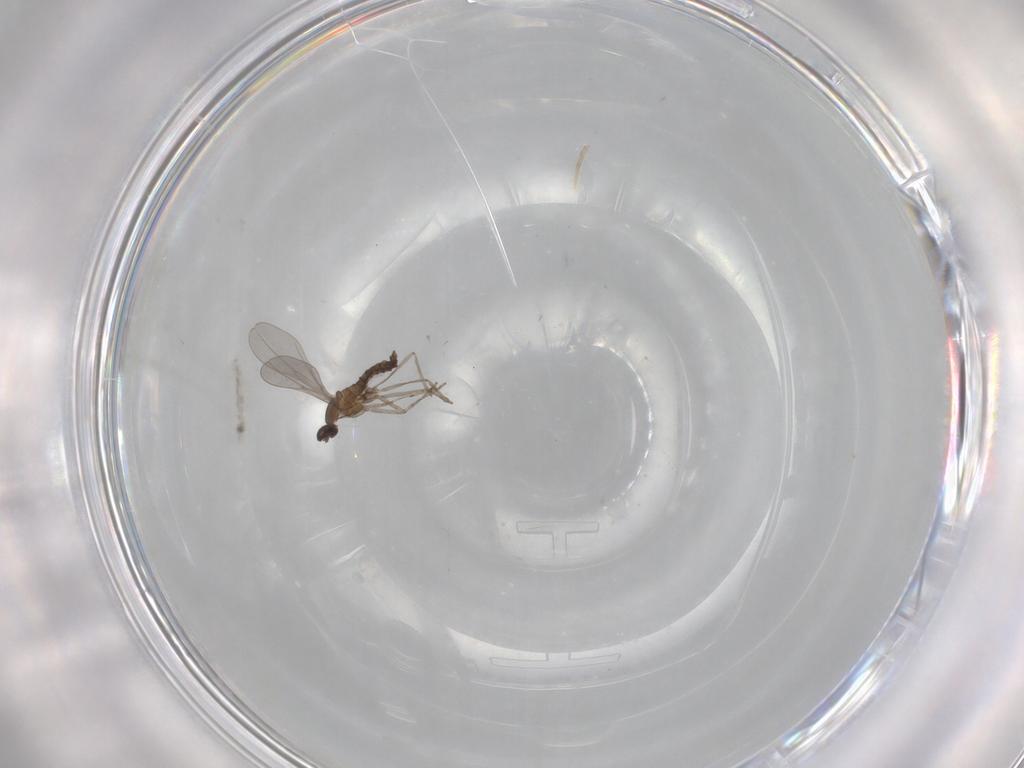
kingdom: Animalia
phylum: Arthropoda
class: Insecta
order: Diptera
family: Cecidomyiidae
